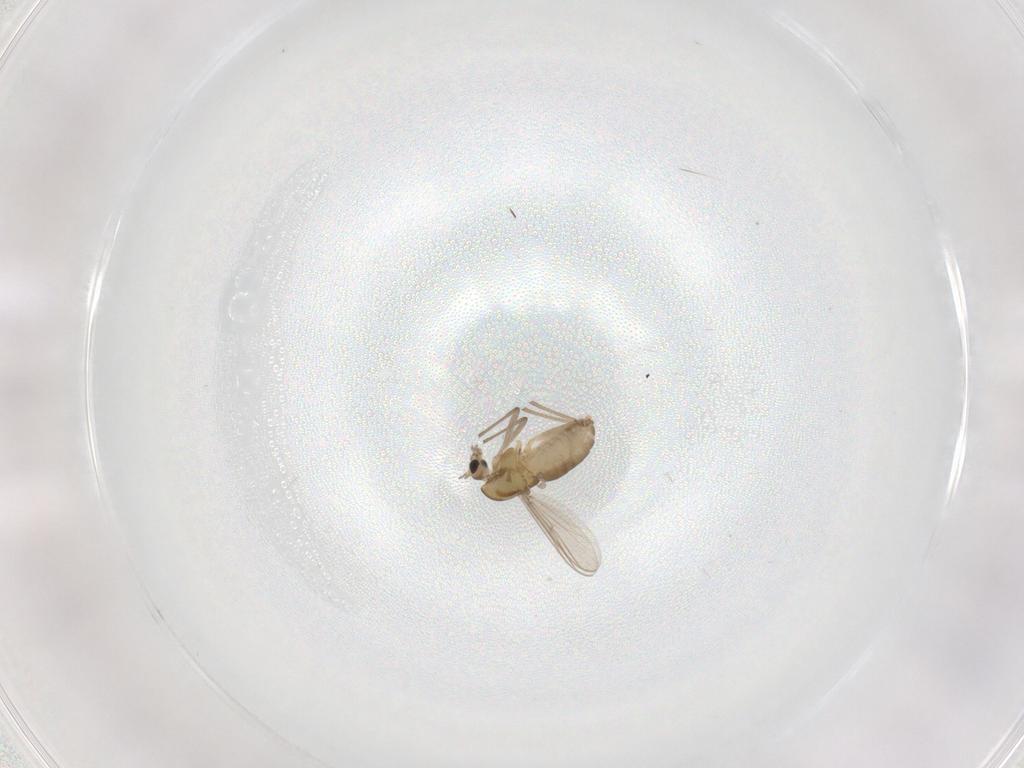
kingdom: Animalia
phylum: Arthropoda
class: Insecta
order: Diptera
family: Chironomidae
